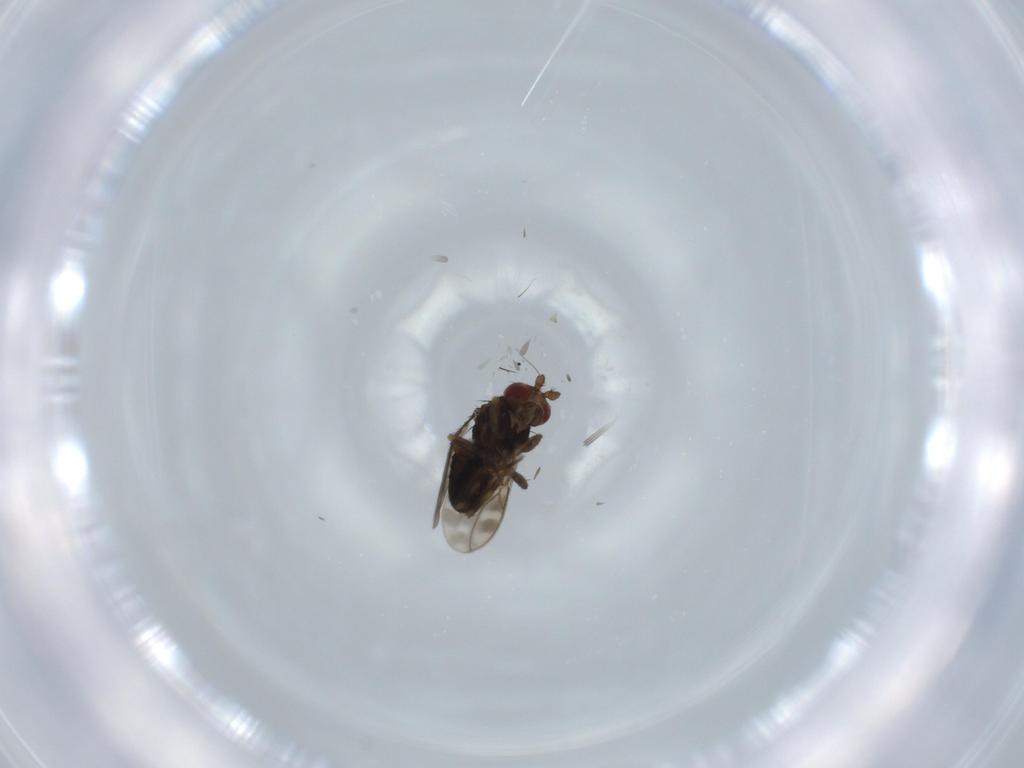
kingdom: Animalia
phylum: Arthropoda
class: Insecta
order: Diptera
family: Sphaeroceridae
